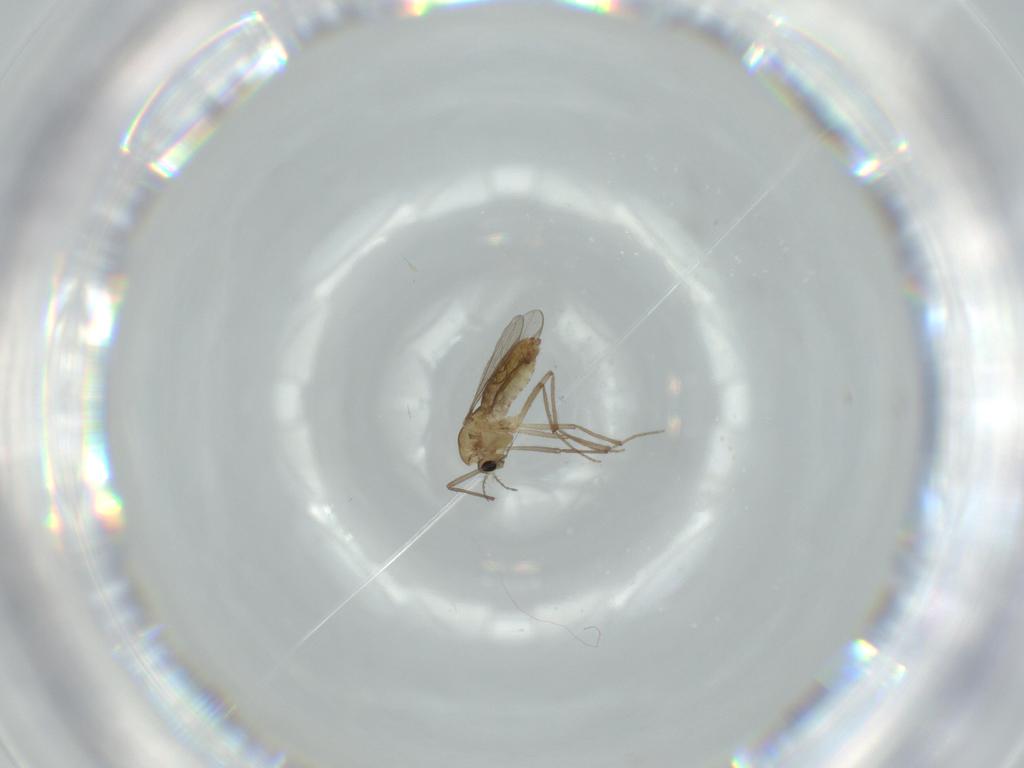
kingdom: Animalia
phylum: Arthropoda
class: Insecta
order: Diptera
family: Chironomidae
